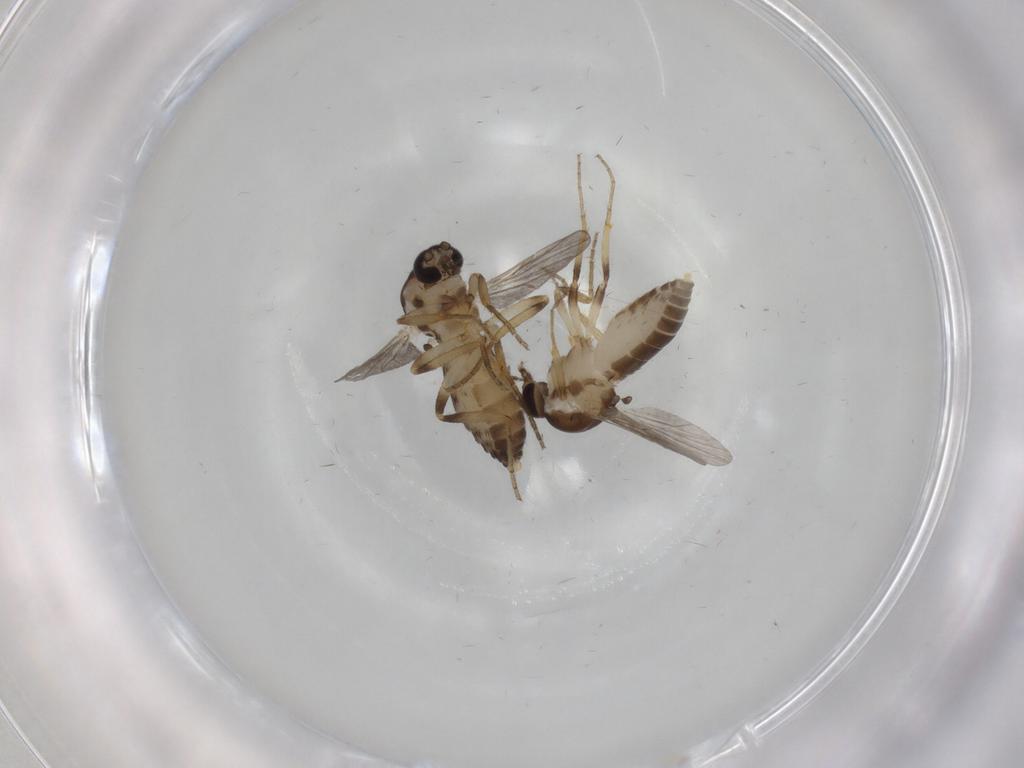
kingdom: Animalia
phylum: Arthropoda
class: Insecta
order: Diptera
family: Ceratopogonidae
